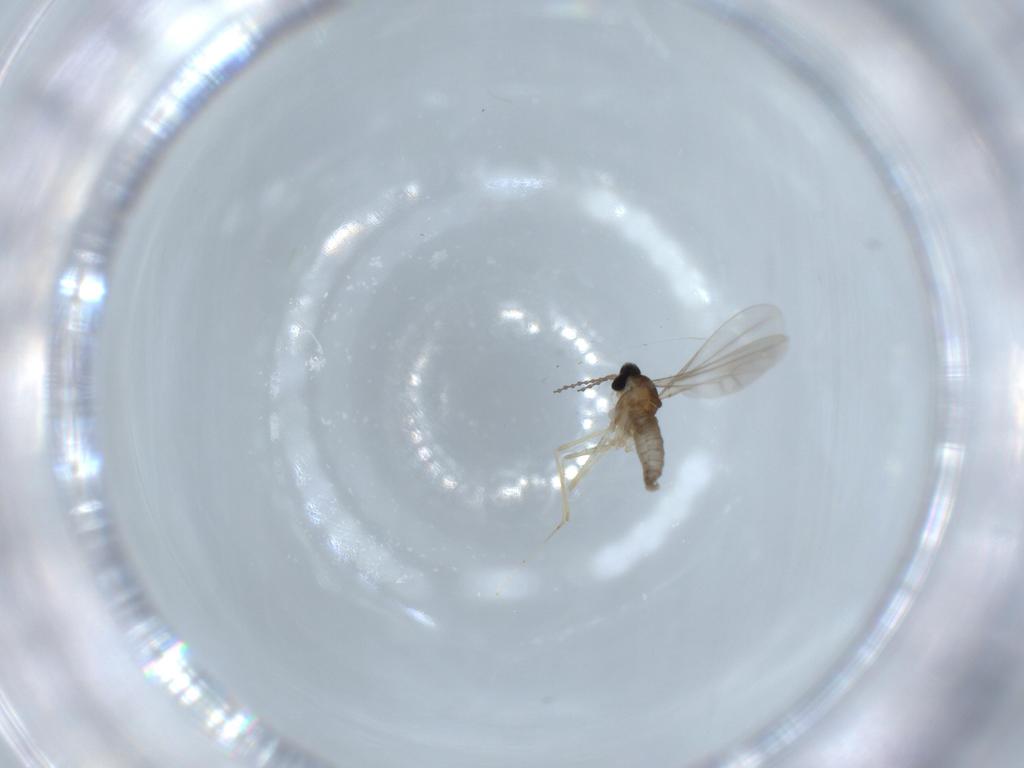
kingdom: Animalia
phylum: Arthropoda
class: Insecta
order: Diptera
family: Cecidomyiidae
